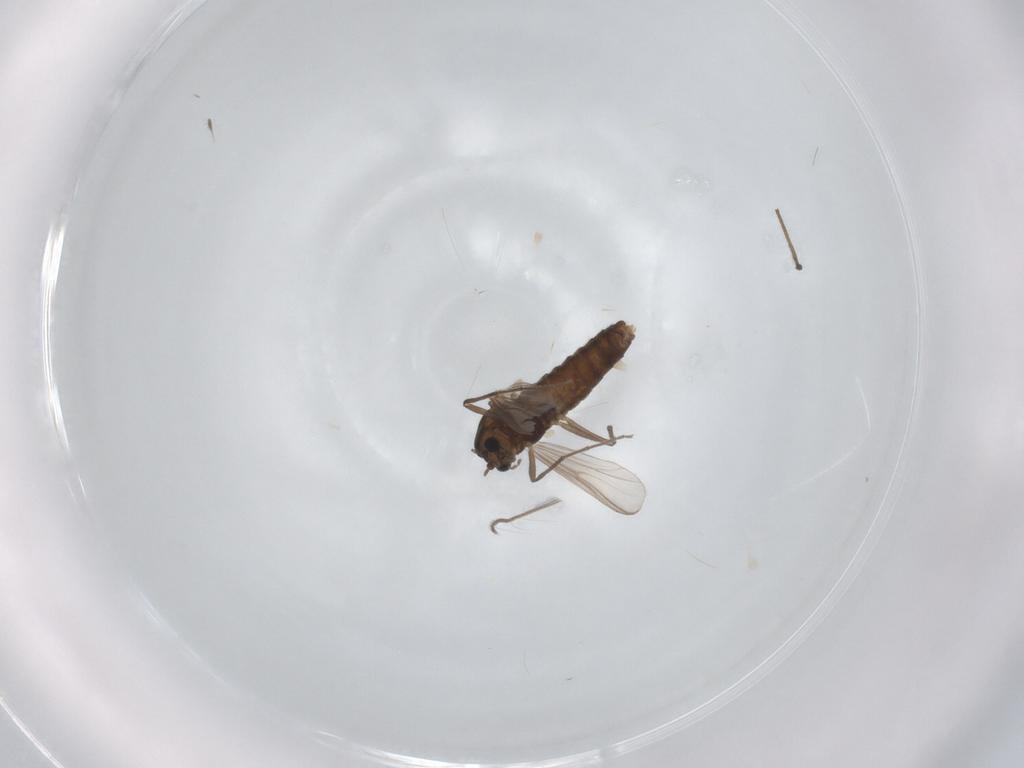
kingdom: Animalia
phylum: Arthropoda
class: Insecta
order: Diptera
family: Chironomidae
